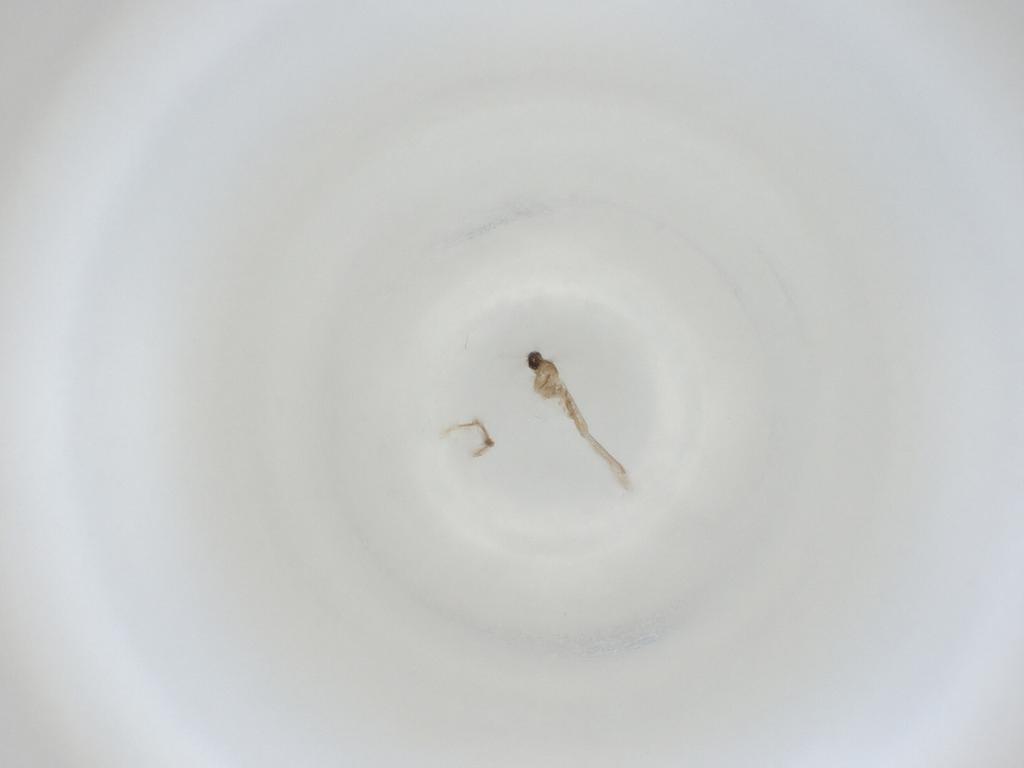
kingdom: Animalia
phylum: Arthropoda
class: Insecta
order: Diptera
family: Cecidomyiidae
